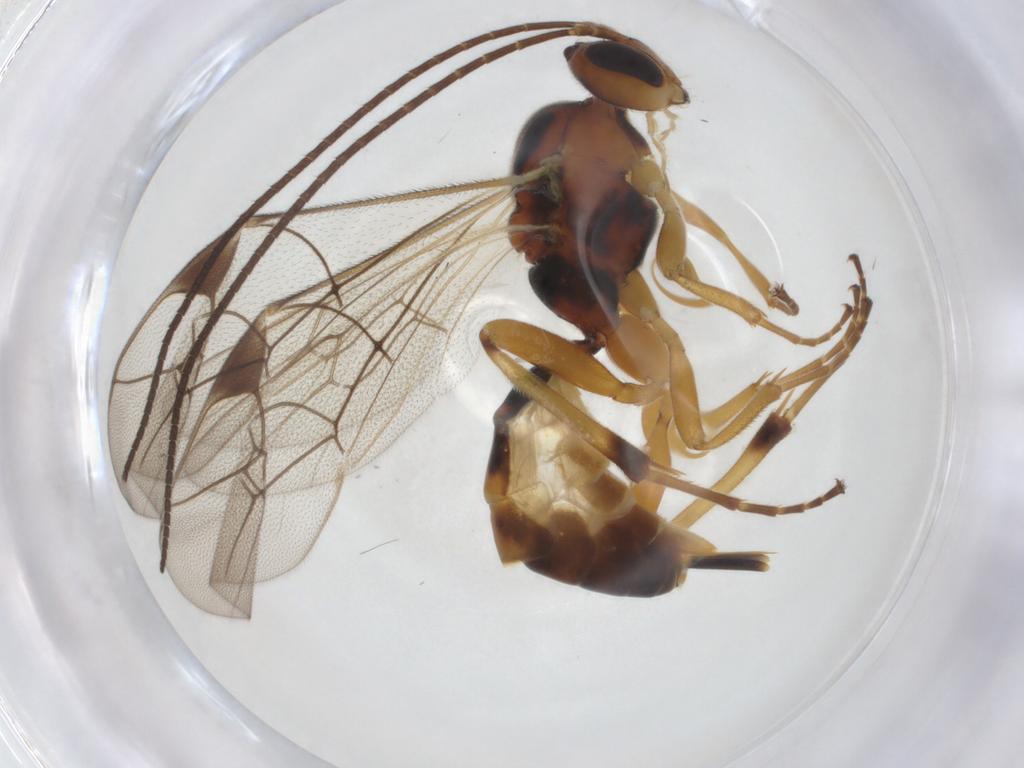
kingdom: Animalia
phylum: Arthropoda
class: Insecta
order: Hymenoptera
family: Ichneumonidae
